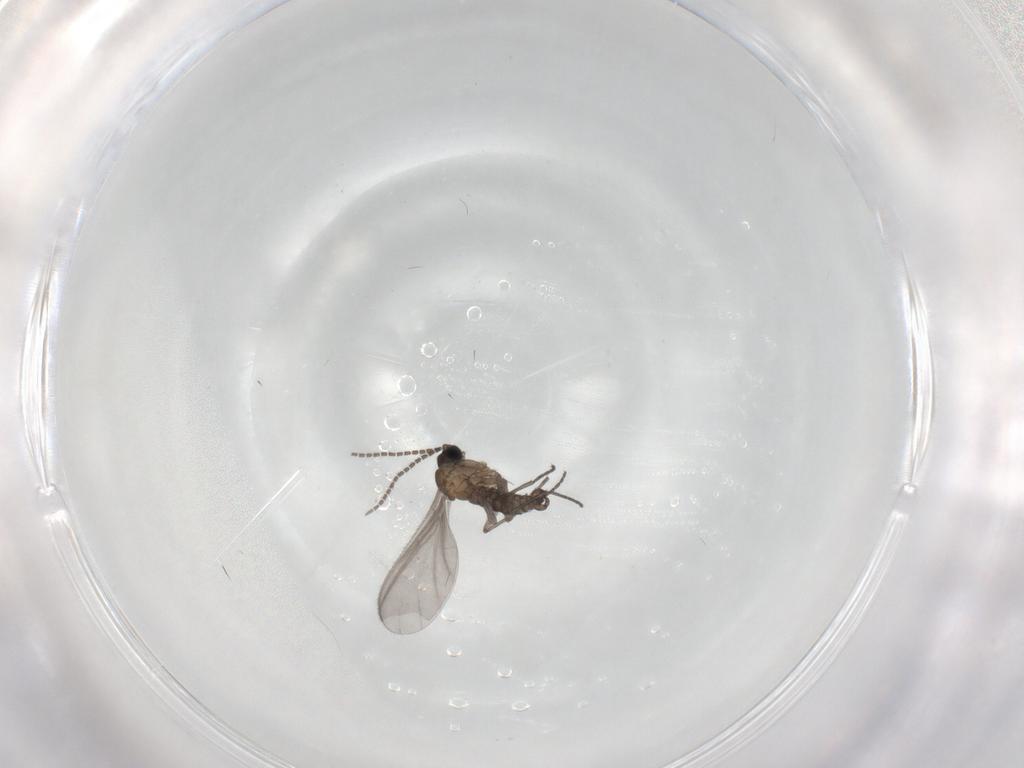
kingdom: Animalia
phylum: Arthropoda
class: Insecta
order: Diptera
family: Sciaridae
